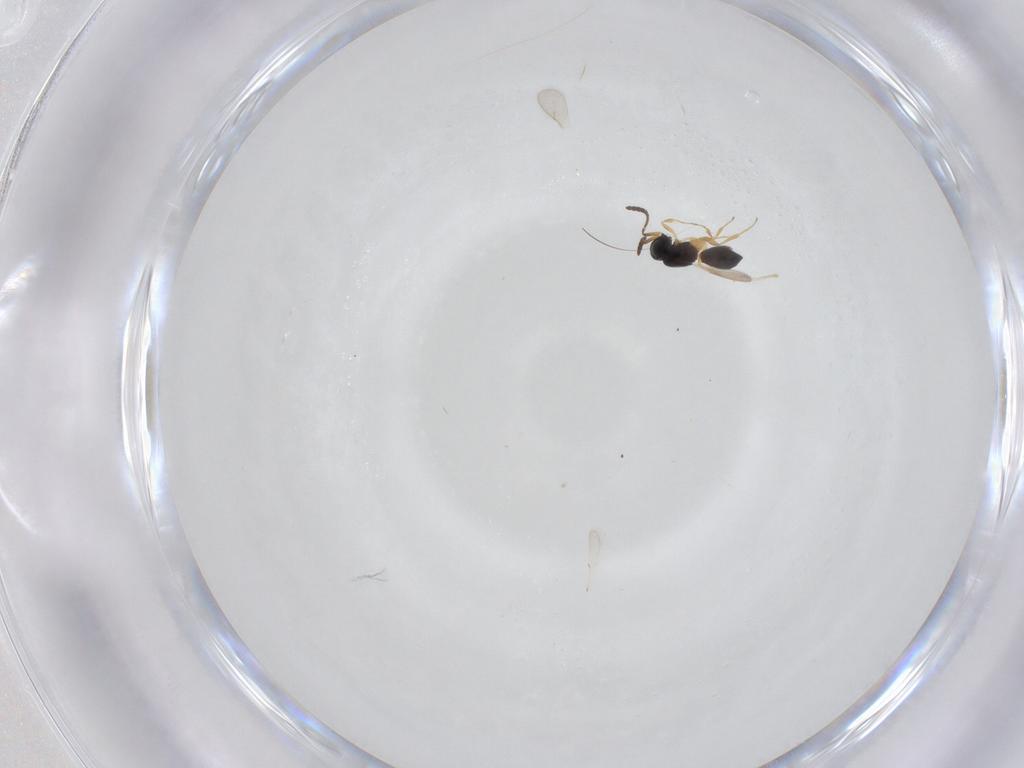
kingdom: Animalia
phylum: Arthropoda
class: Insecta
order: Hymenoptera
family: Scelionidae
